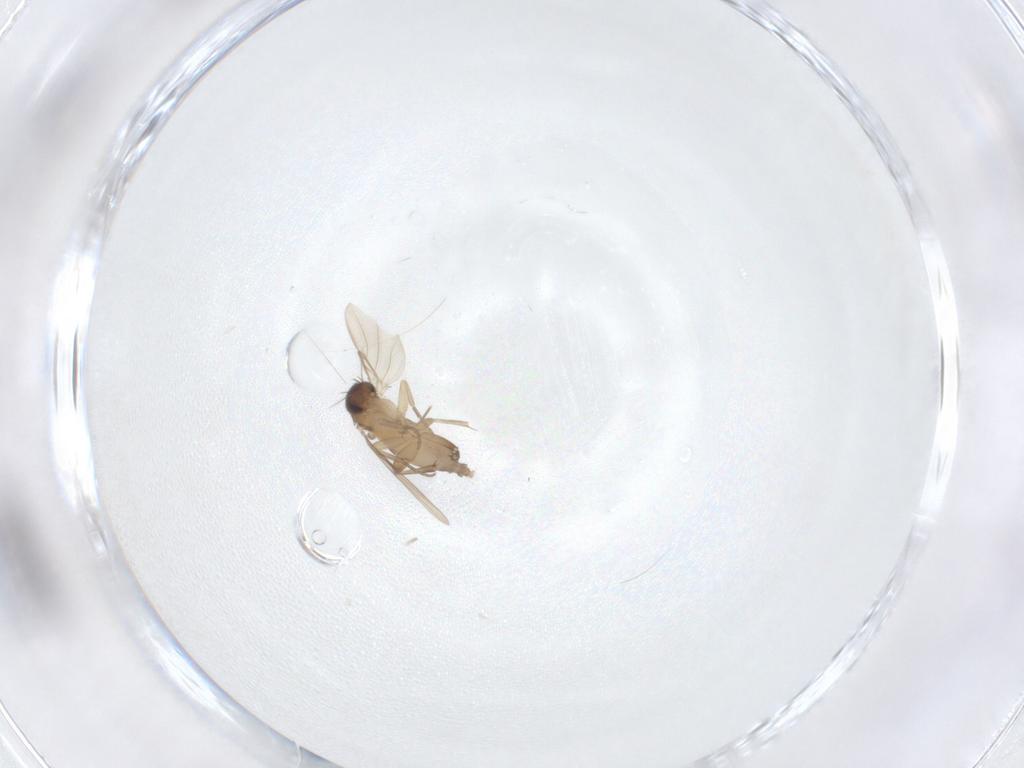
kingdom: Animalia
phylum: Arthropoda
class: Insecta
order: Diptera
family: Phoridae
